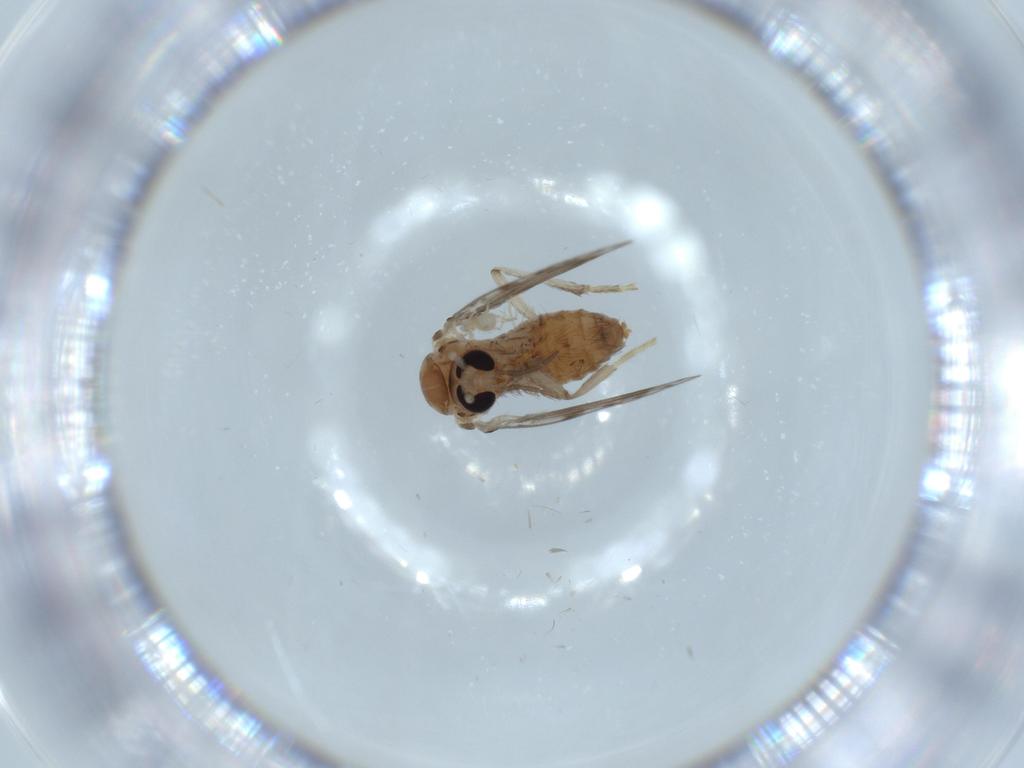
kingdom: Animalia
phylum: Arthropoda
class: Insecta
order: Diptera
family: Psychodidae
